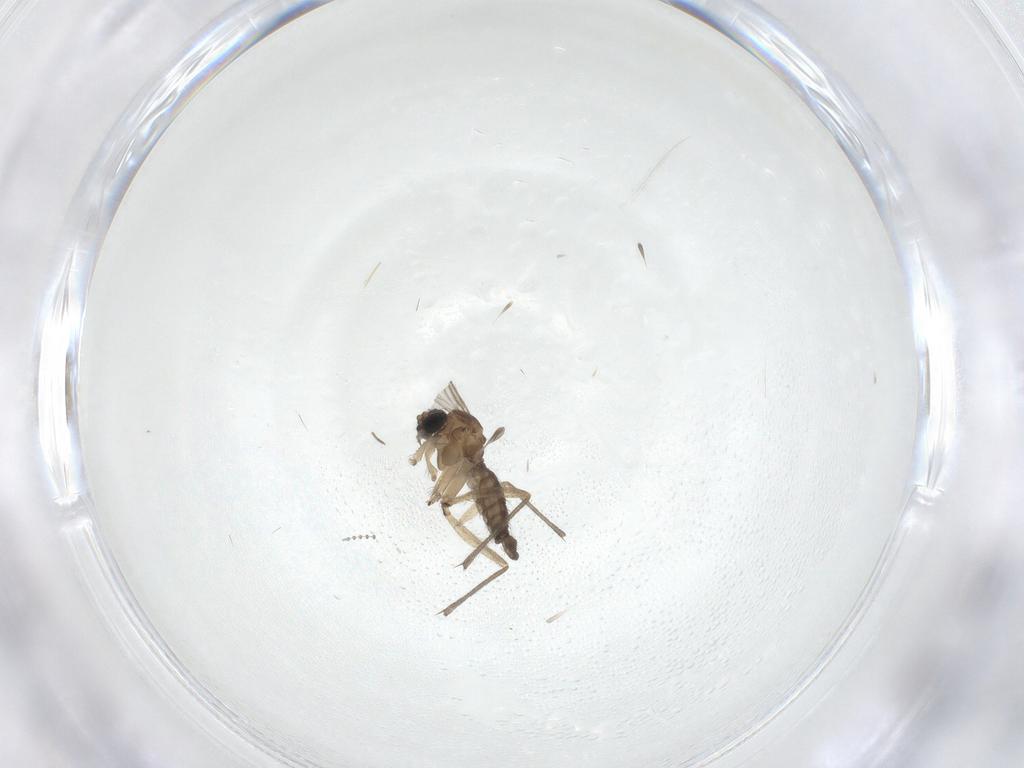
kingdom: Animalia
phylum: Arthropoda
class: Insecta
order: Diptera
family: Sciaridae
